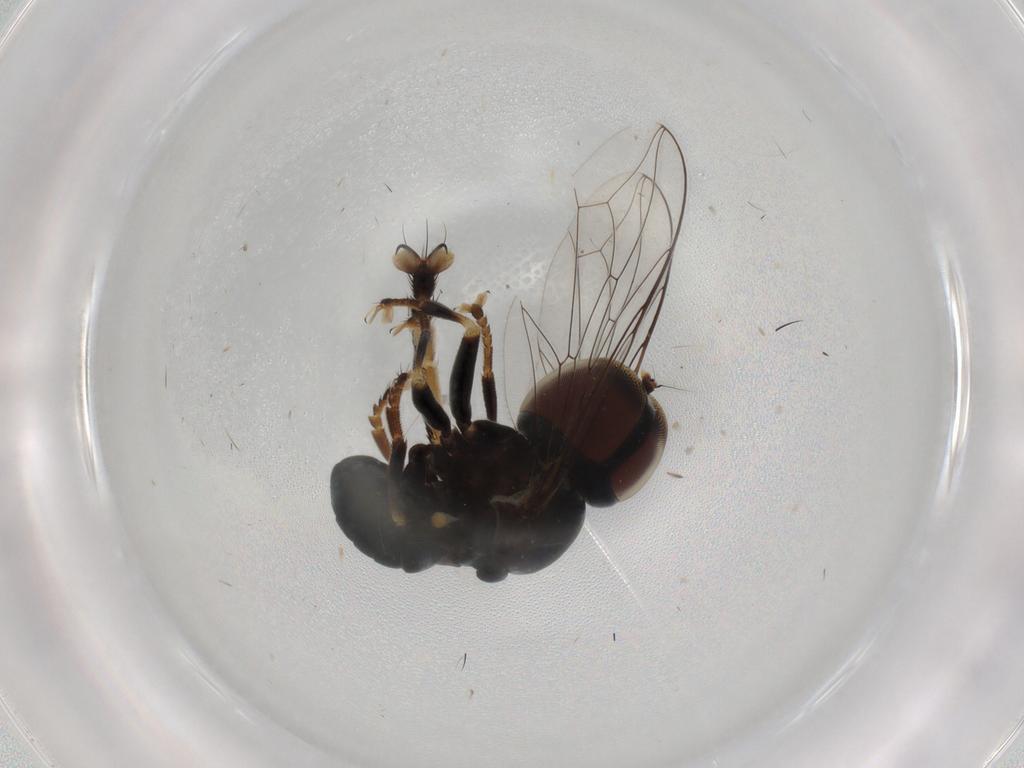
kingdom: Animalia
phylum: Arthropoda
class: Insecta
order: Diptera
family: Pipunculidae
